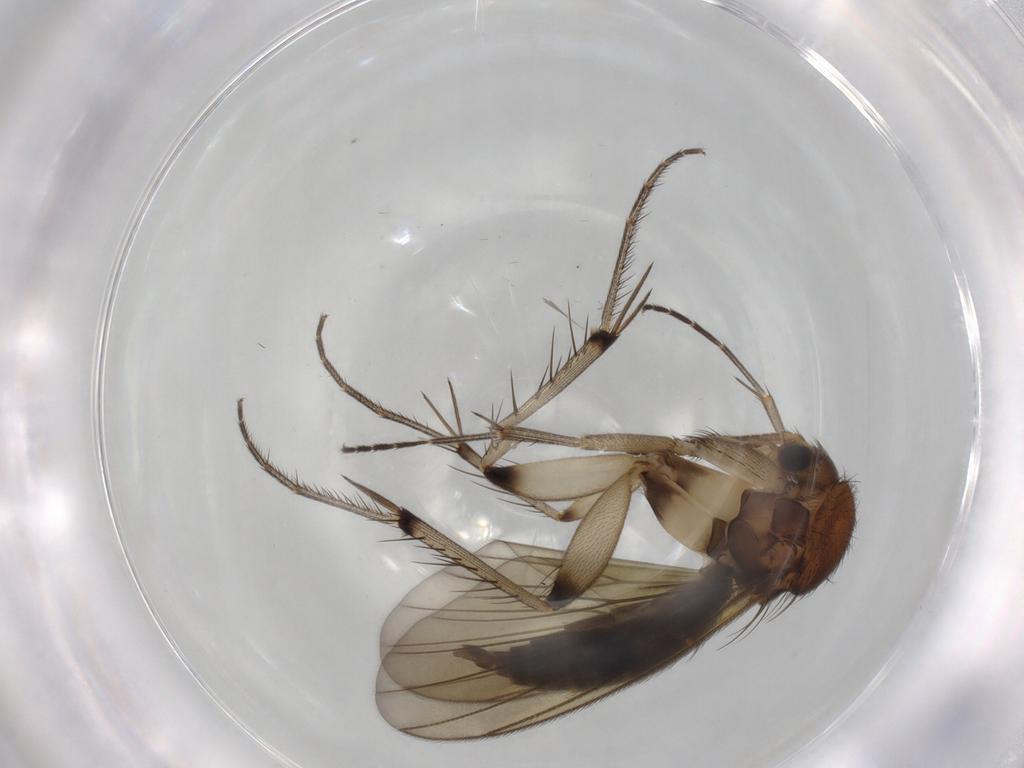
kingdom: Animalia
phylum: Arthropoda
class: Insecta
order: Diptera
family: Mycetophilidae
